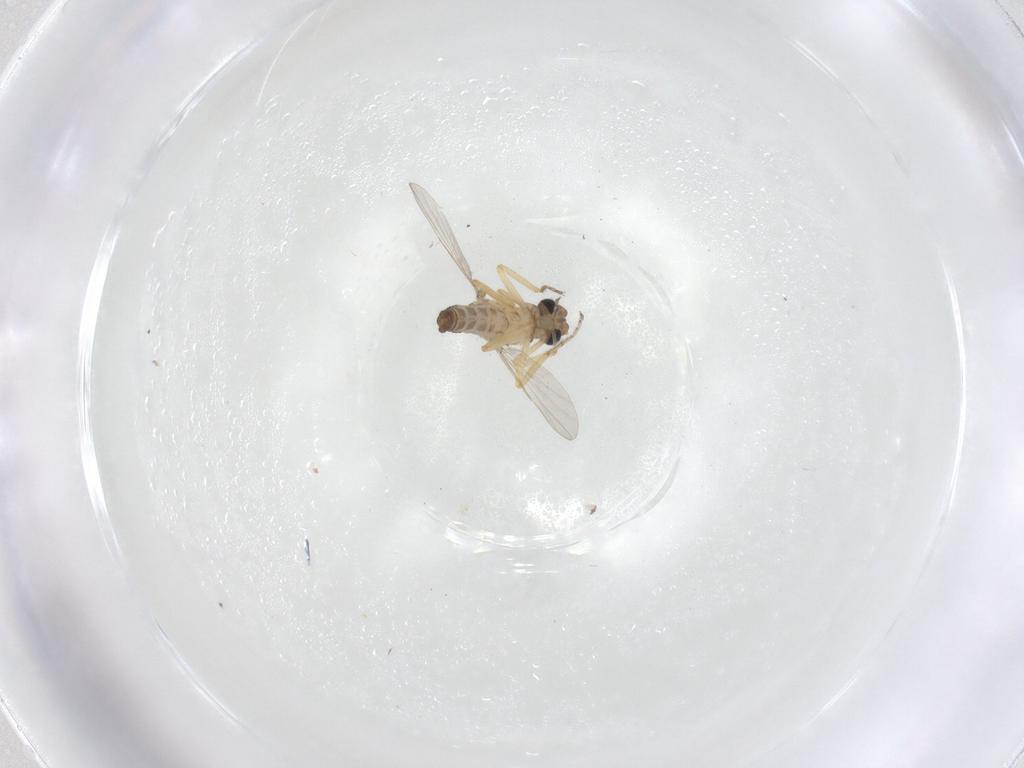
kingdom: Animalia
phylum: Arthropoda
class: Insecta
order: Diptera
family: Ceratopogonidae
